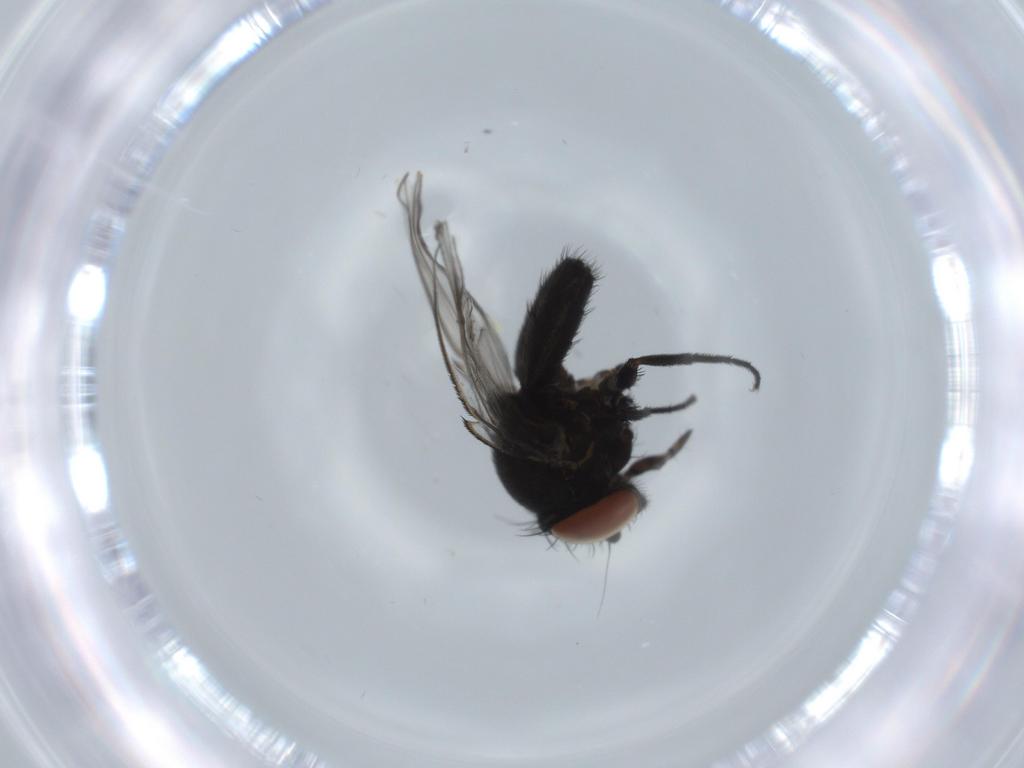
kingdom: Animalia
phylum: Arthropoda
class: Insecta
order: Diptera
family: Milichiidae
